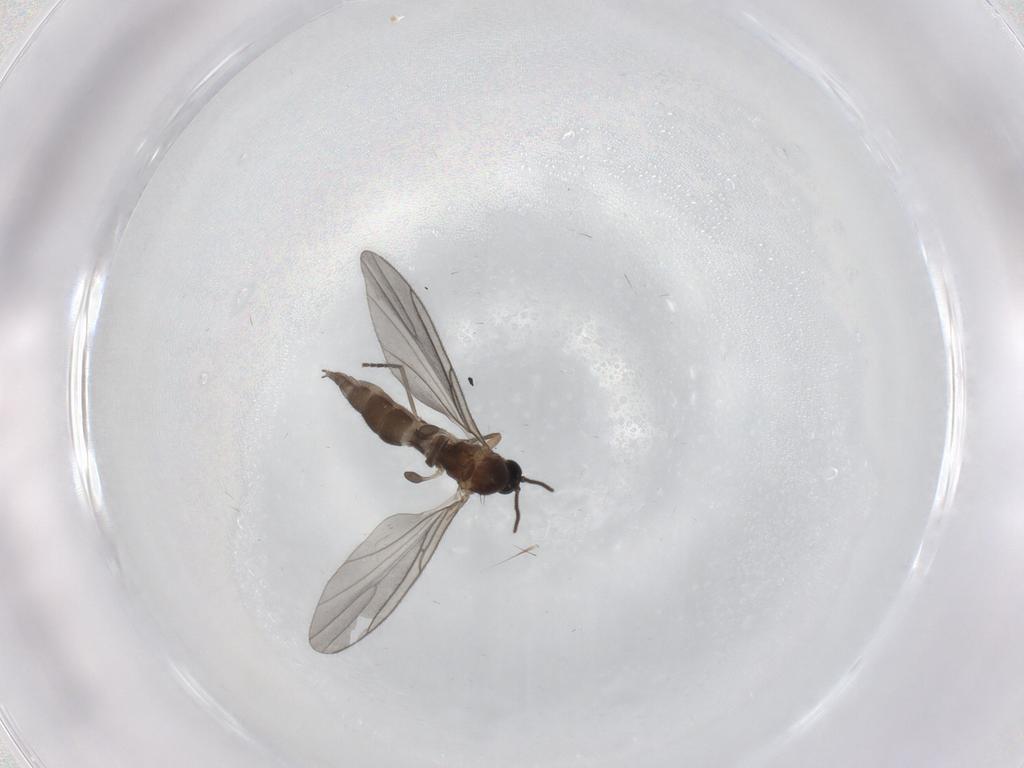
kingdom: Animalia
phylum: Arthropoda
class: Insecta
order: Diptera
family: Sciaridae
